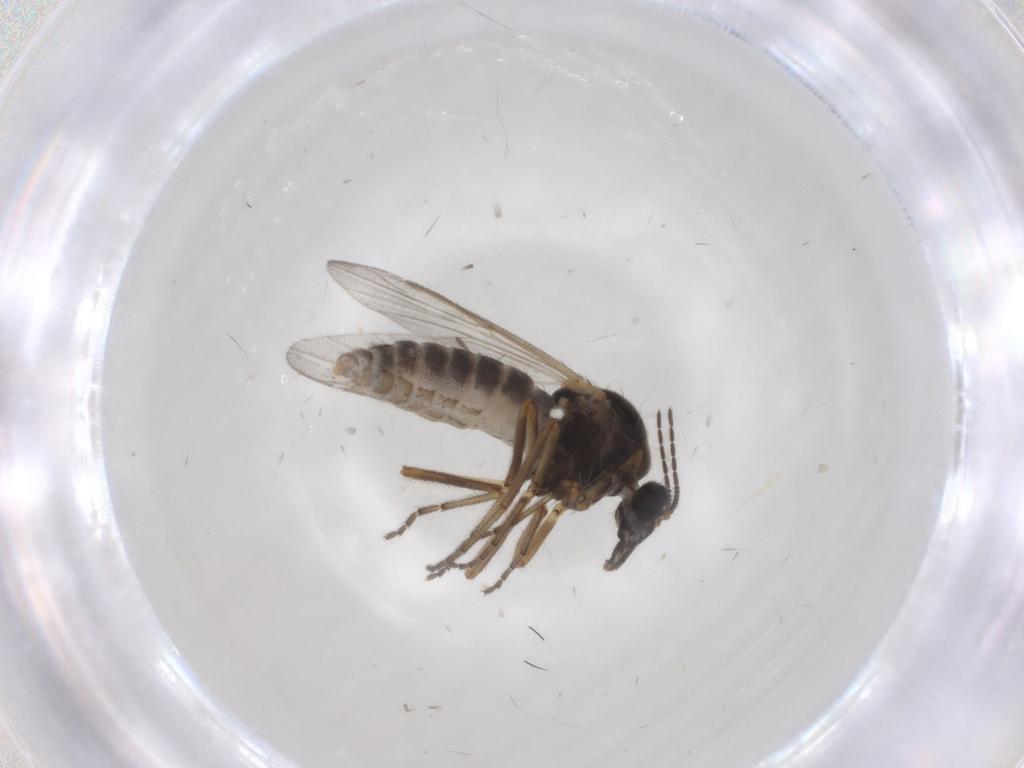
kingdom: Animalia
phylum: Arthropoda
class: Insecta
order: Diptera
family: Ceratopogonidae
